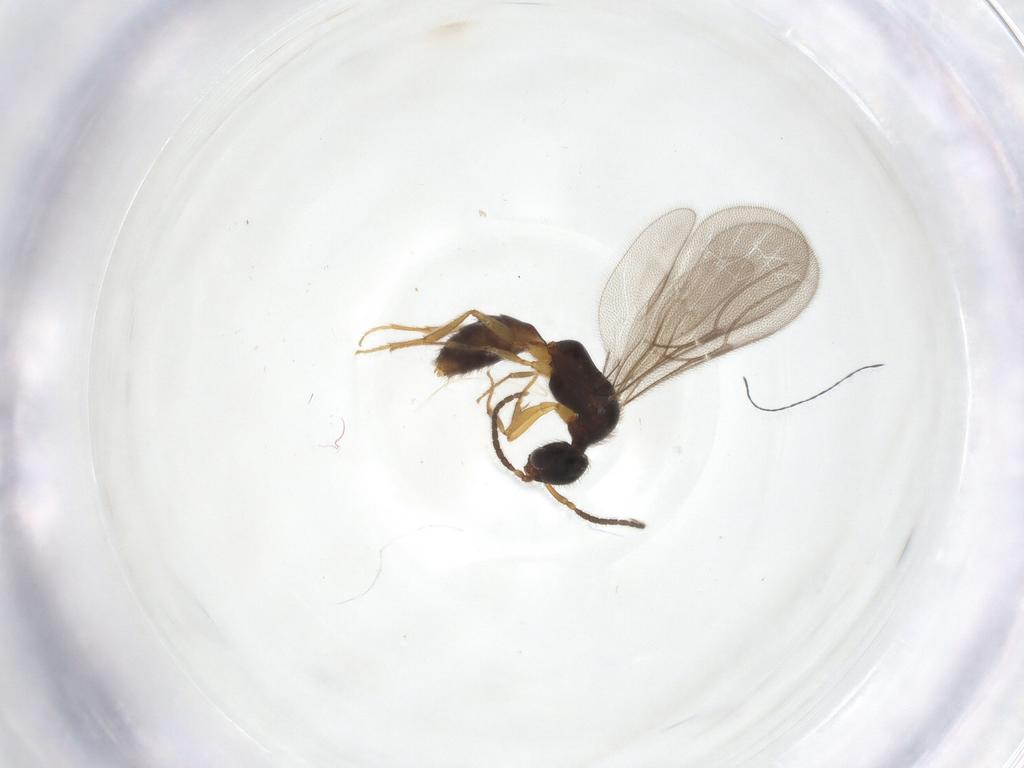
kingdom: Animalia
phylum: Arthropoda
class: Insecta
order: Hymenoptera
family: Bethylidae
